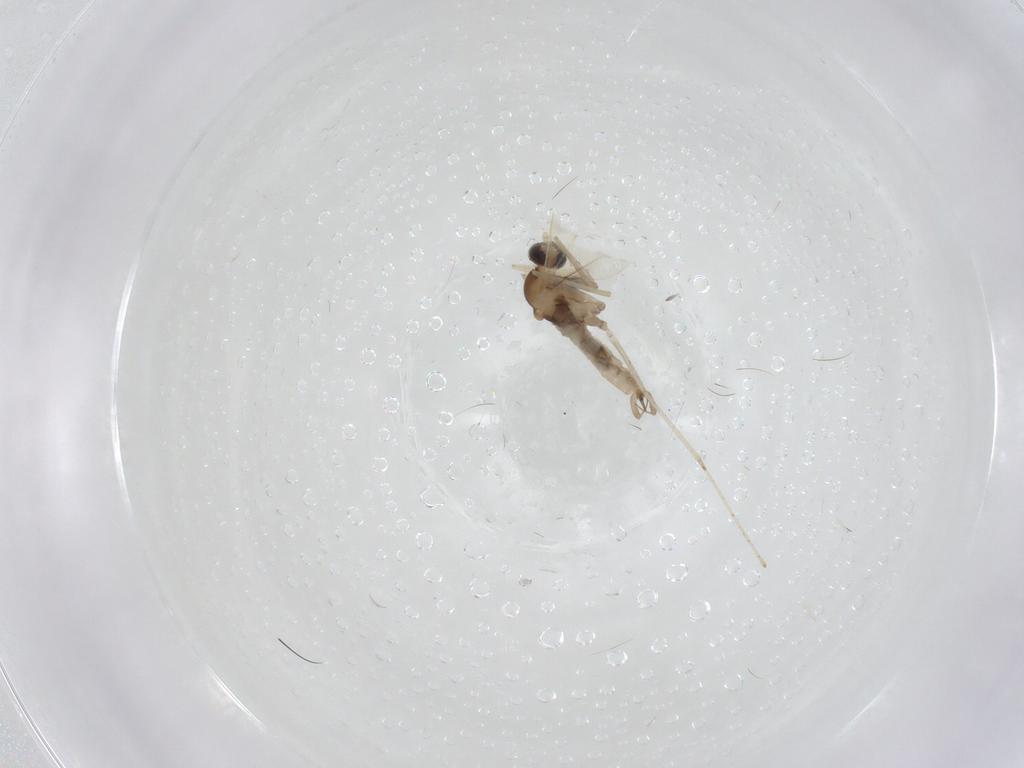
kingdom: Animalia
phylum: Arthropoda
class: Insecta
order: Diptera
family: Cecidomyiidae
